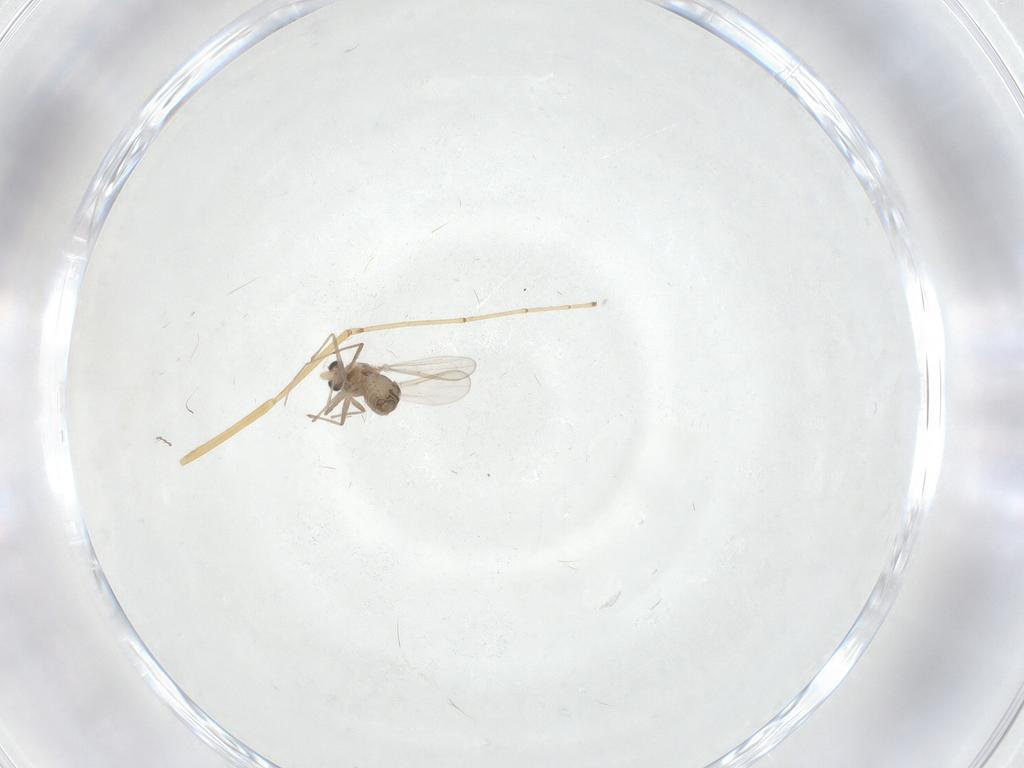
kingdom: Animalia
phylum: Arthropoda
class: Insecta
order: Diptera
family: Chironomidae
